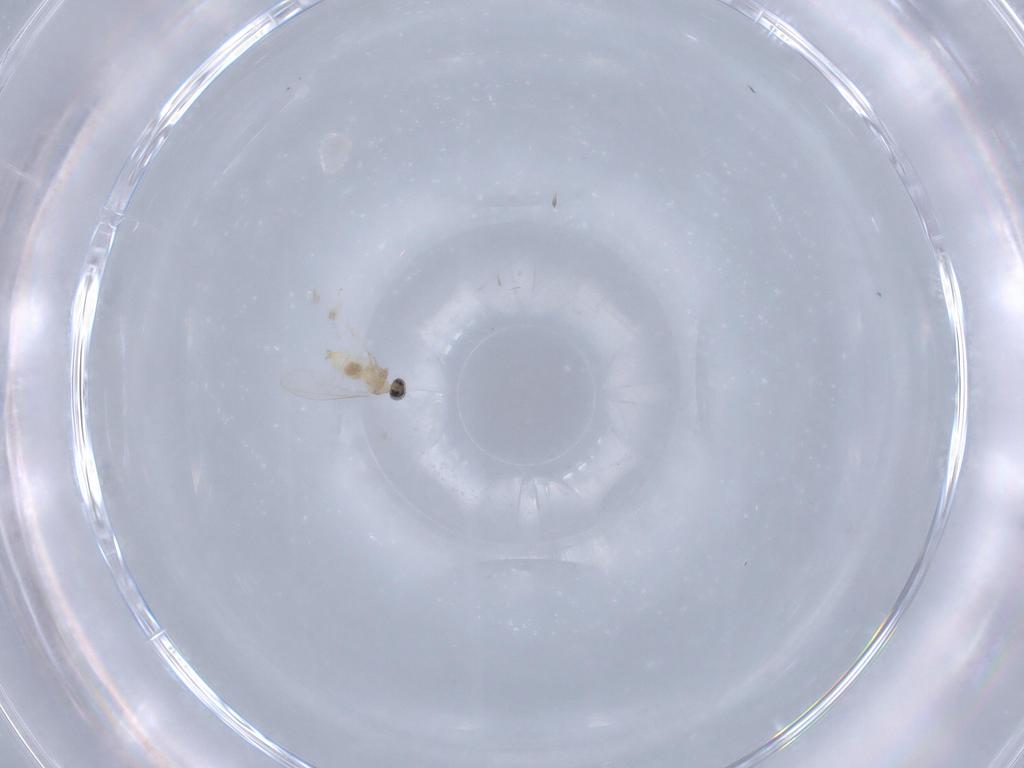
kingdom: Animalia
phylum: Arthropoda
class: Insecta
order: Diptera
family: Cecidomyiidae
